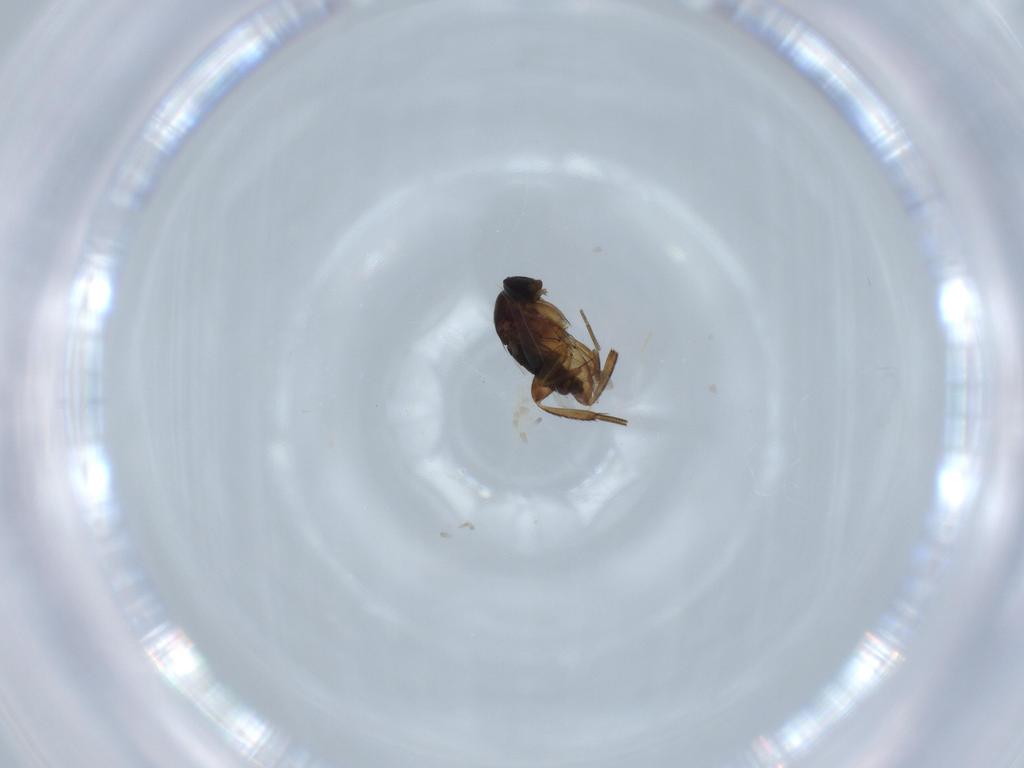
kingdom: Animalia
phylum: Arthropoda
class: Insecta
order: Diptera
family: Phoridae
